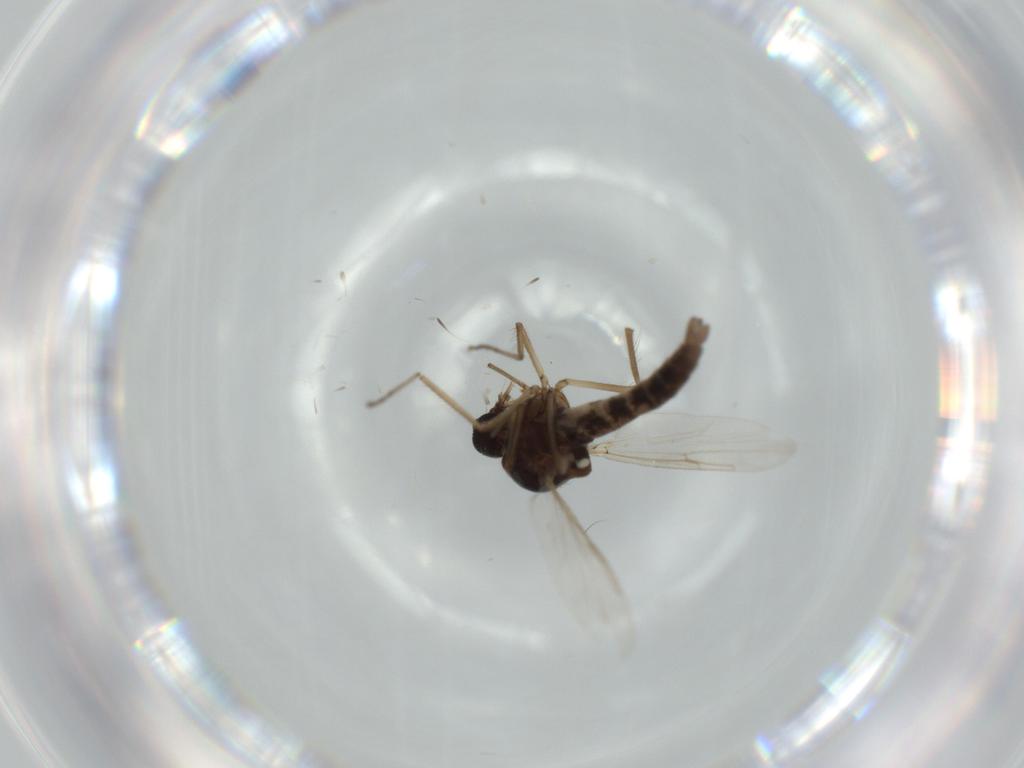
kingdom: Animalia
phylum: Arthropoda
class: Insecta
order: Diptera
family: Ceratopogonidae
